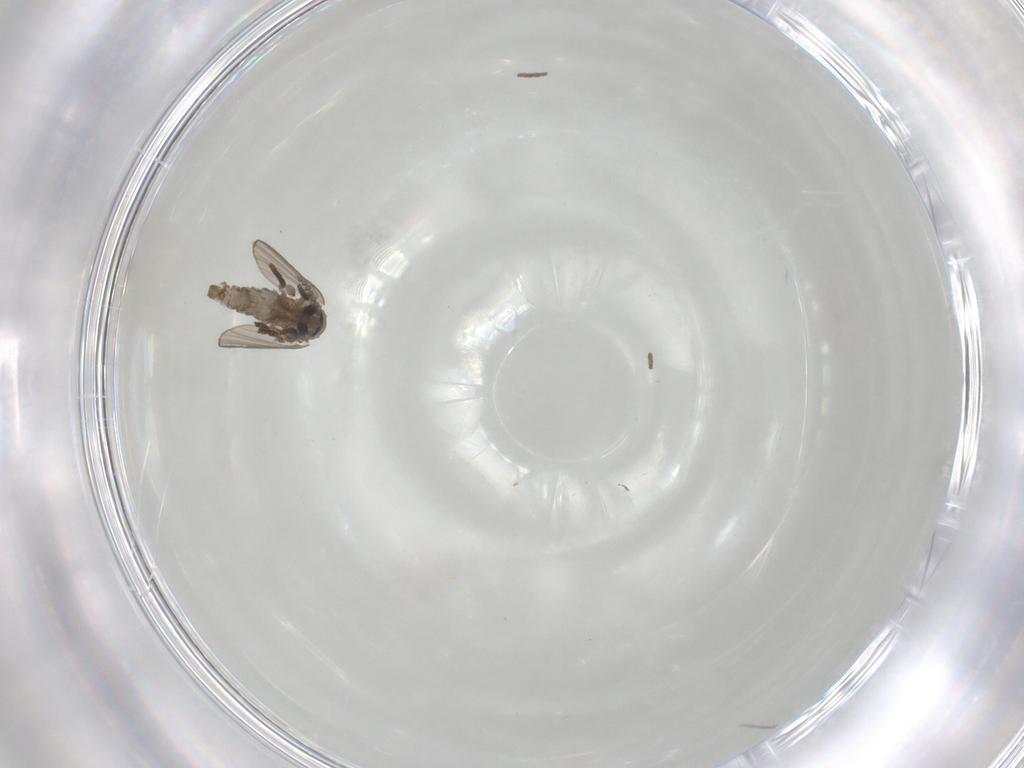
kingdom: Animalia
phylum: Arthropoda
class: Insecta
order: Diptera
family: Psychodidae
